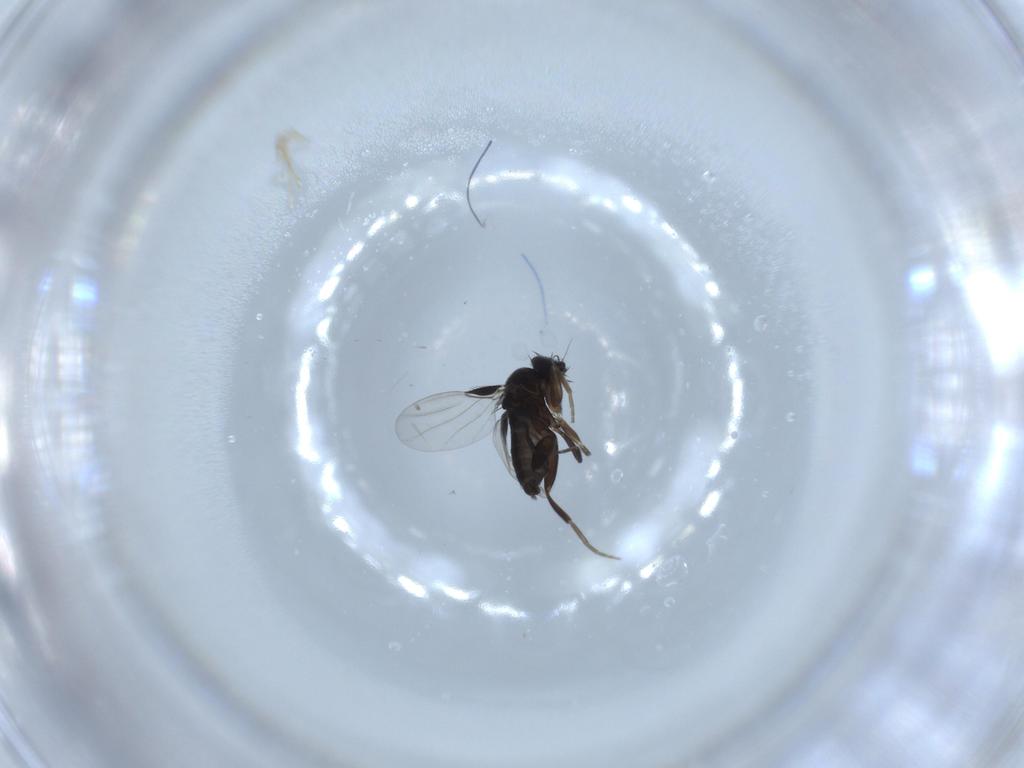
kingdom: Animalia
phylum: Arthropoda
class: Insecta
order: Diptera
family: Phoridae
